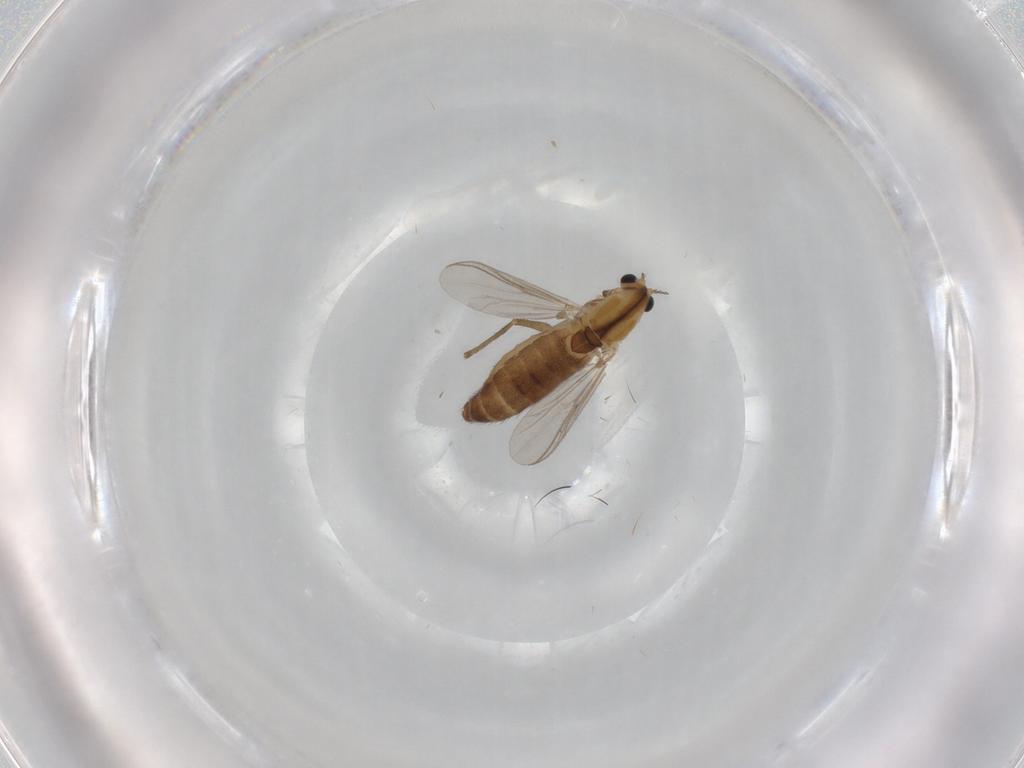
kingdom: Animalia
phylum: Arthropoda
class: Insecta
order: Diptera
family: Chironomidae
